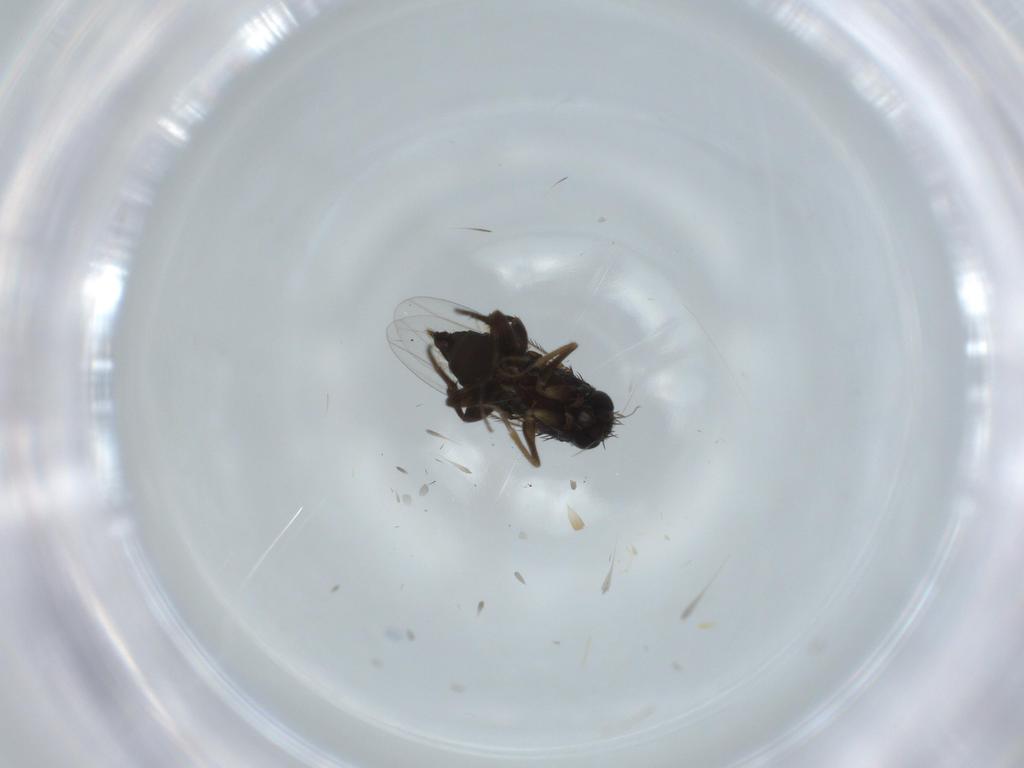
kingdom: Animalia
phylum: Arthropoda
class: Insecta
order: Diptera
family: Phoridae
